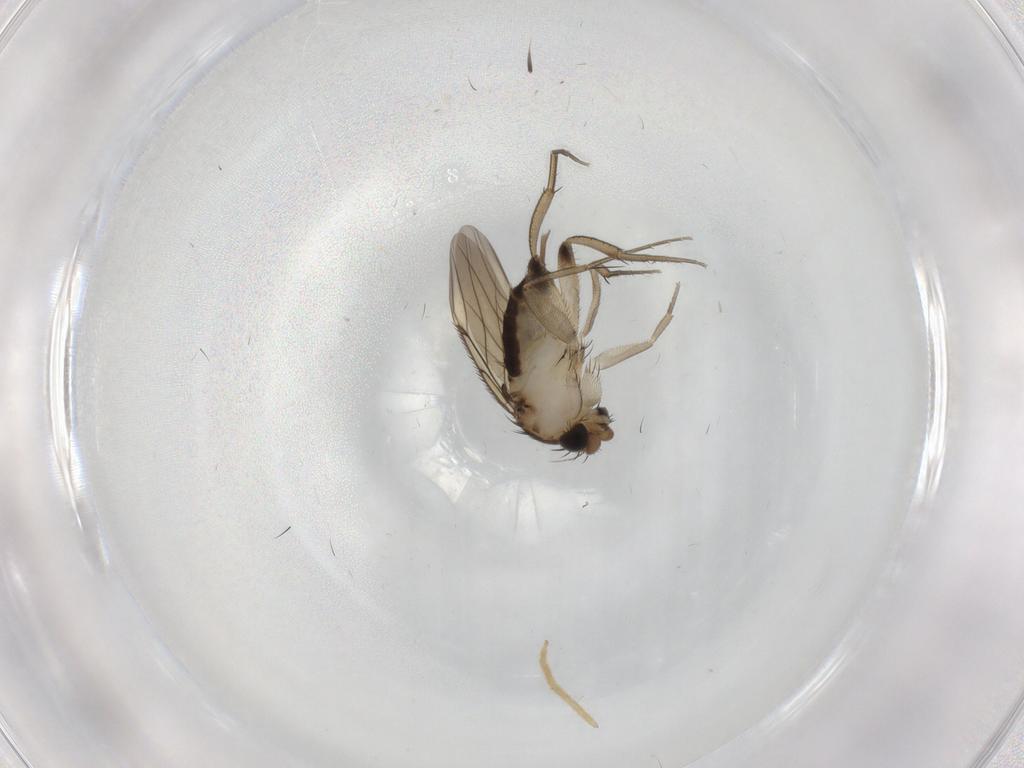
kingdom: Animalia
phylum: Arthropoda
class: Insecta
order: Diptera
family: Phoridae
